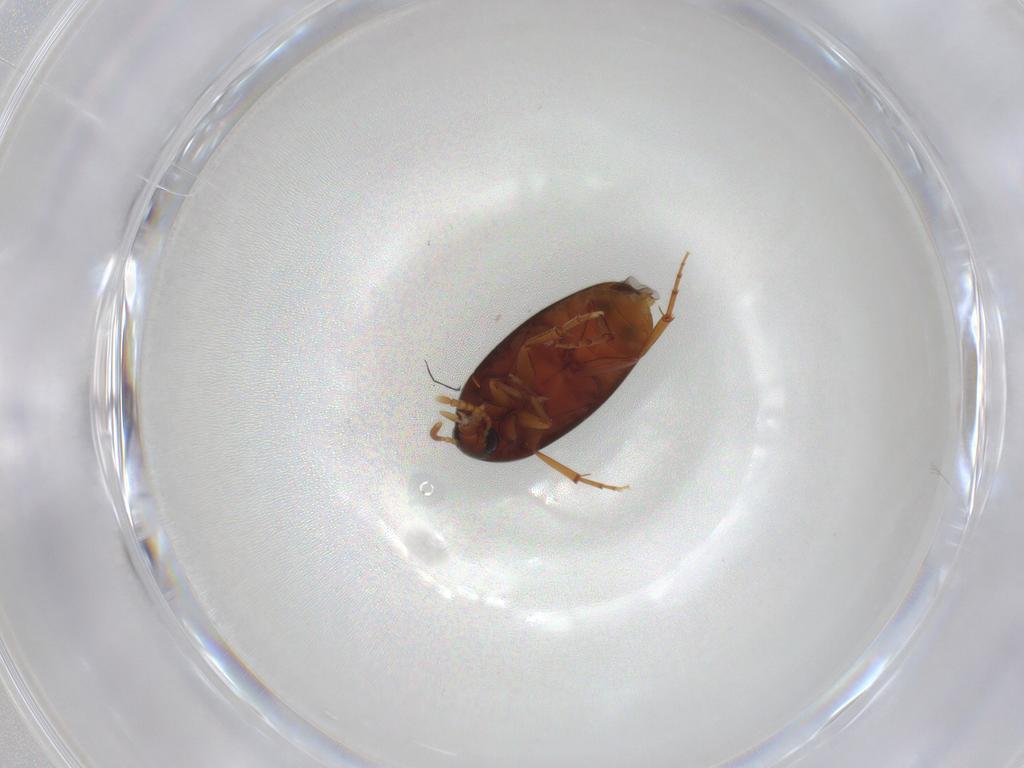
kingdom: Animalia
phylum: Arthropoda
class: Insecta
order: Coleoptera
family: Scraptiidae
